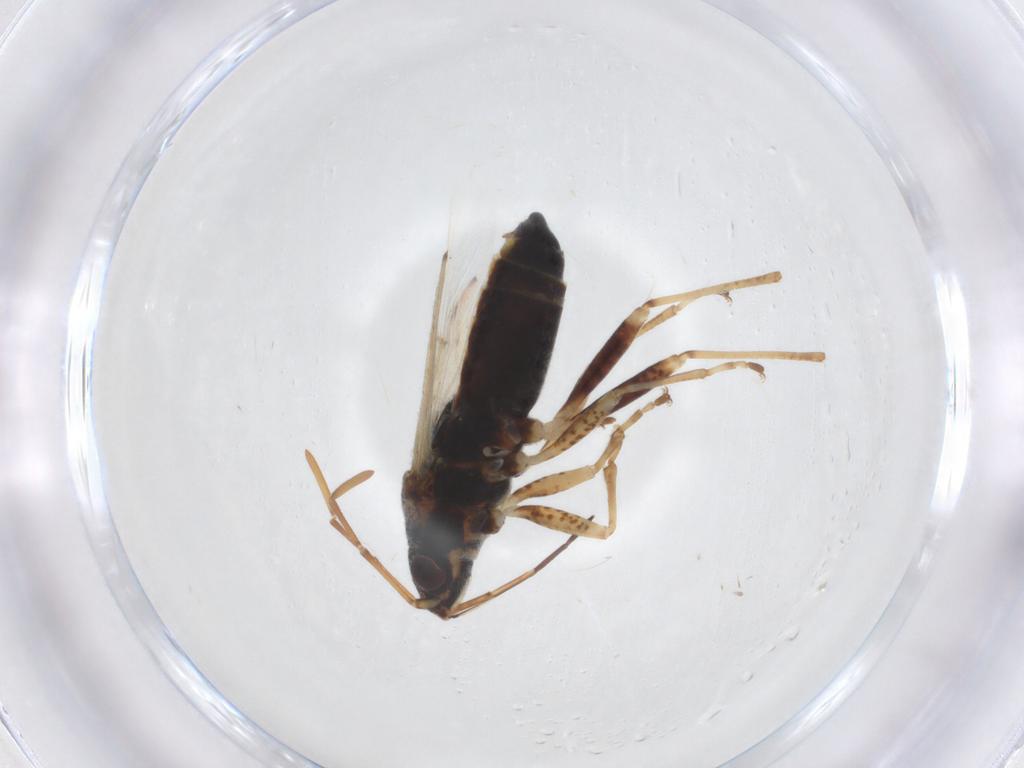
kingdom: Animalia
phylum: Arthropoda
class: Insecta
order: Hemiptera
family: Lygaeidae
